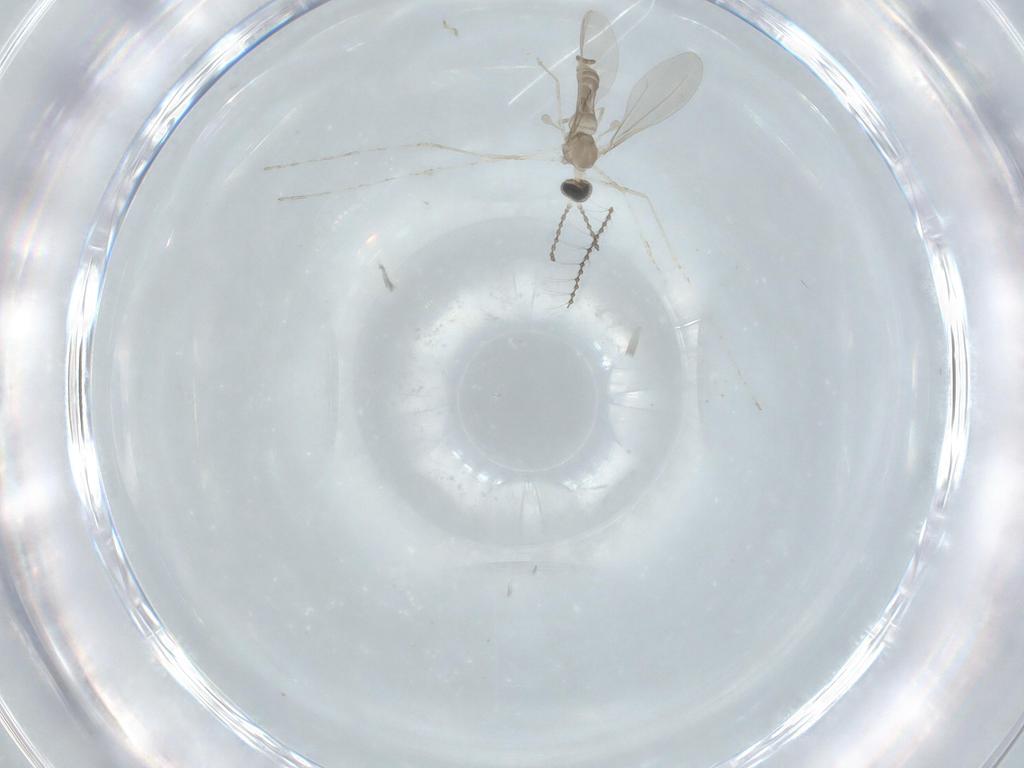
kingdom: Animalia
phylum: Arthropoda
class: Insecta
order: Diptera
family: Cecidomyiidae
